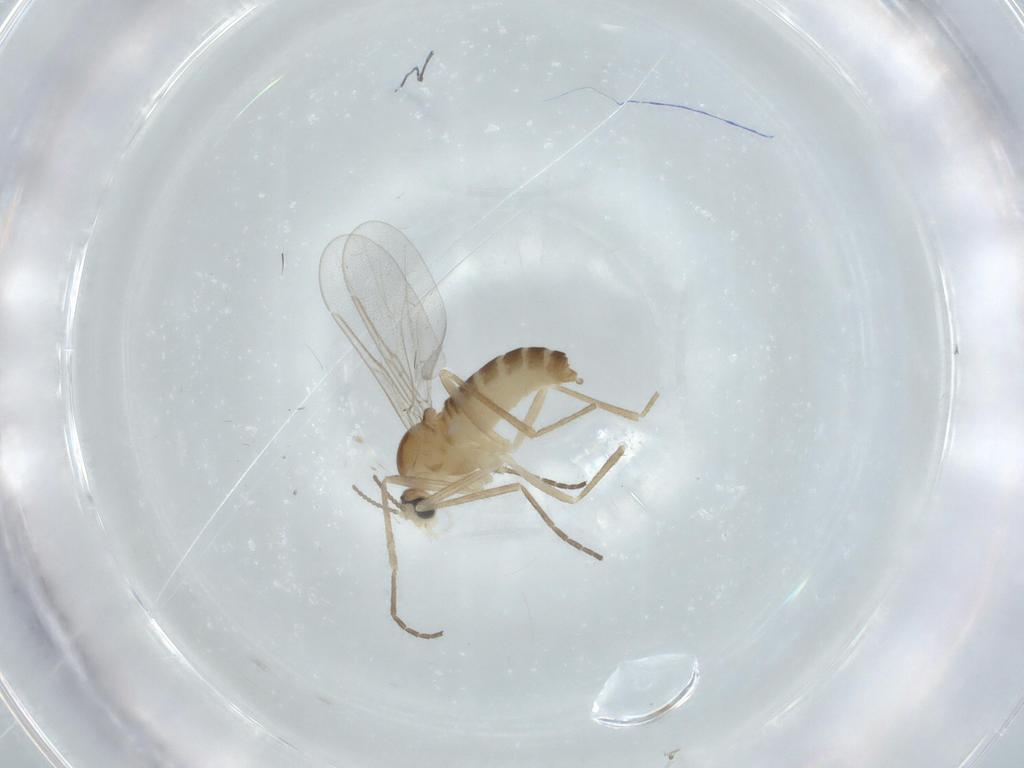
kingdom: Animalia
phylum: Arthropoda
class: Insecta
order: Diptera
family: Cecidomyiidae
